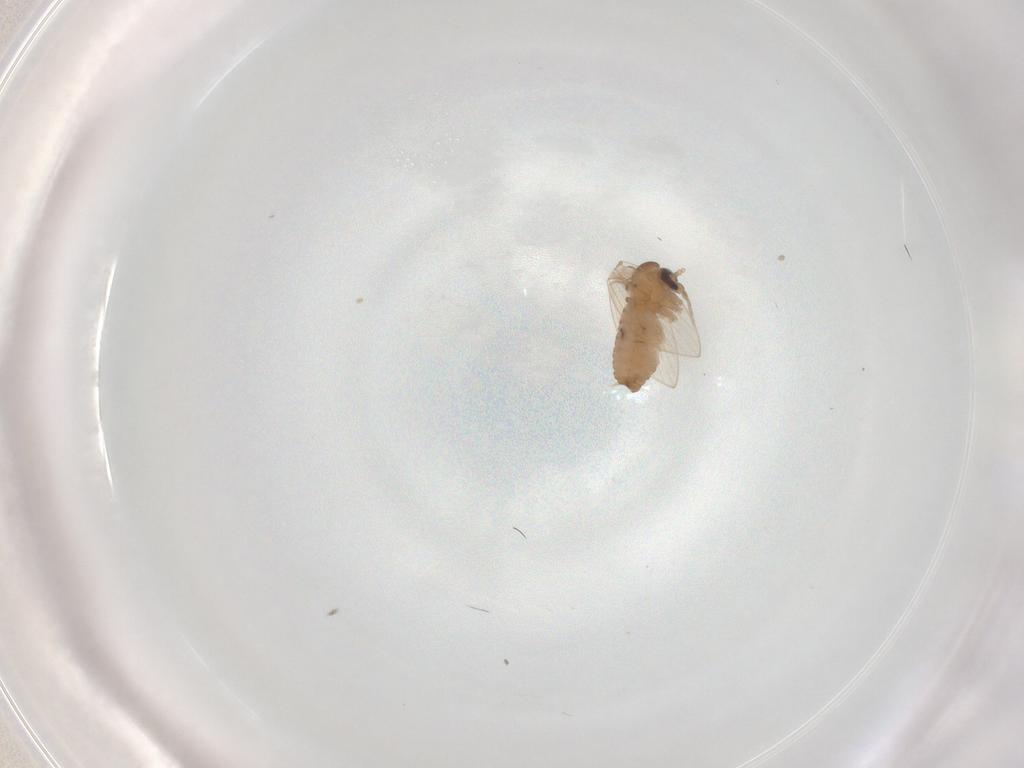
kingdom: Animalia
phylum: Arthropoda
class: Insecta
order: Diptera
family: Psychodidae
